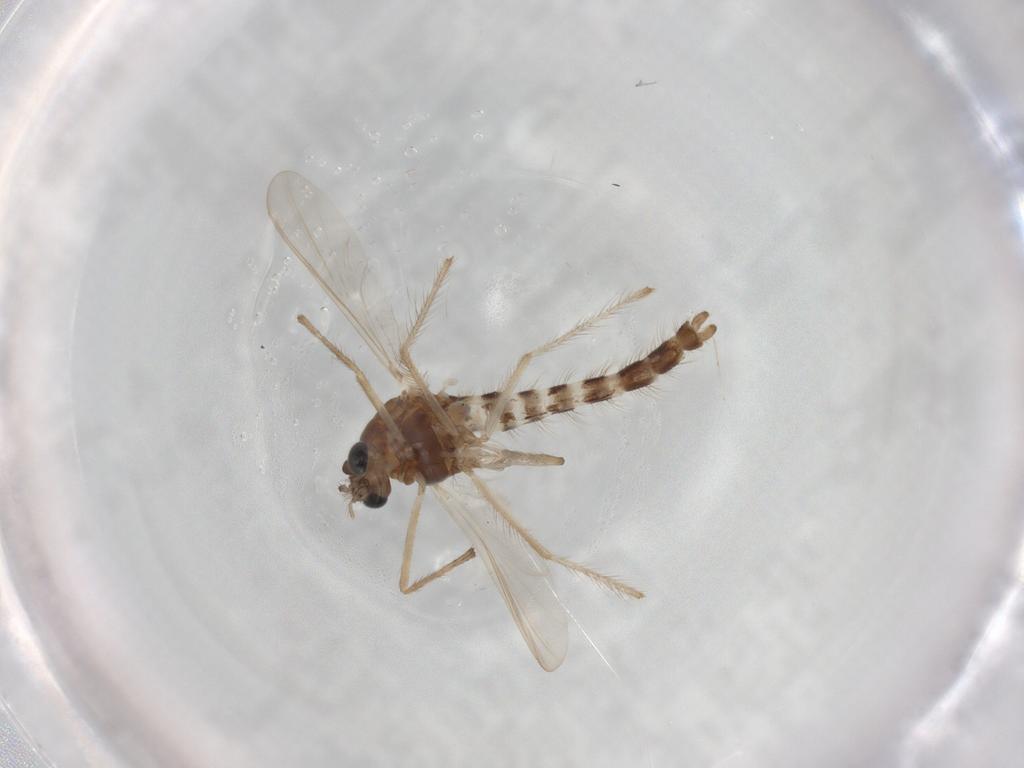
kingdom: Animalia
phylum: Arthropoda
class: Insecta
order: Diptera
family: Chironomidae
